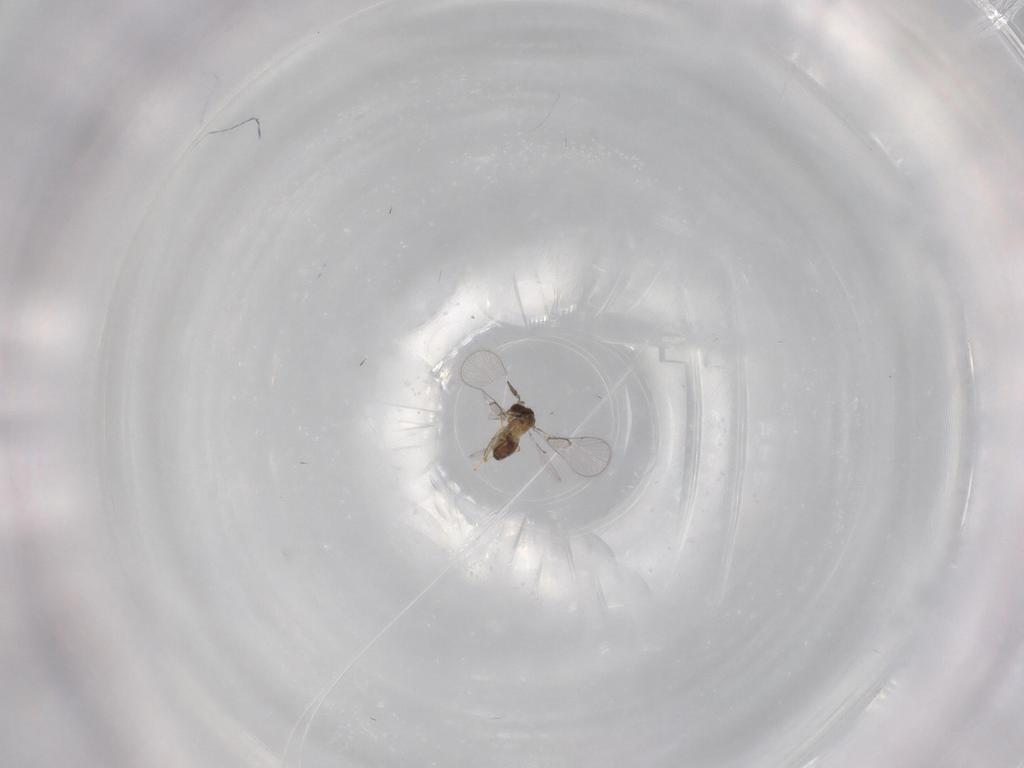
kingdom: Animalia
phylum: Arthropoda
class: Insecta
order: Hymenoptera
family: Trichogrammatidae
